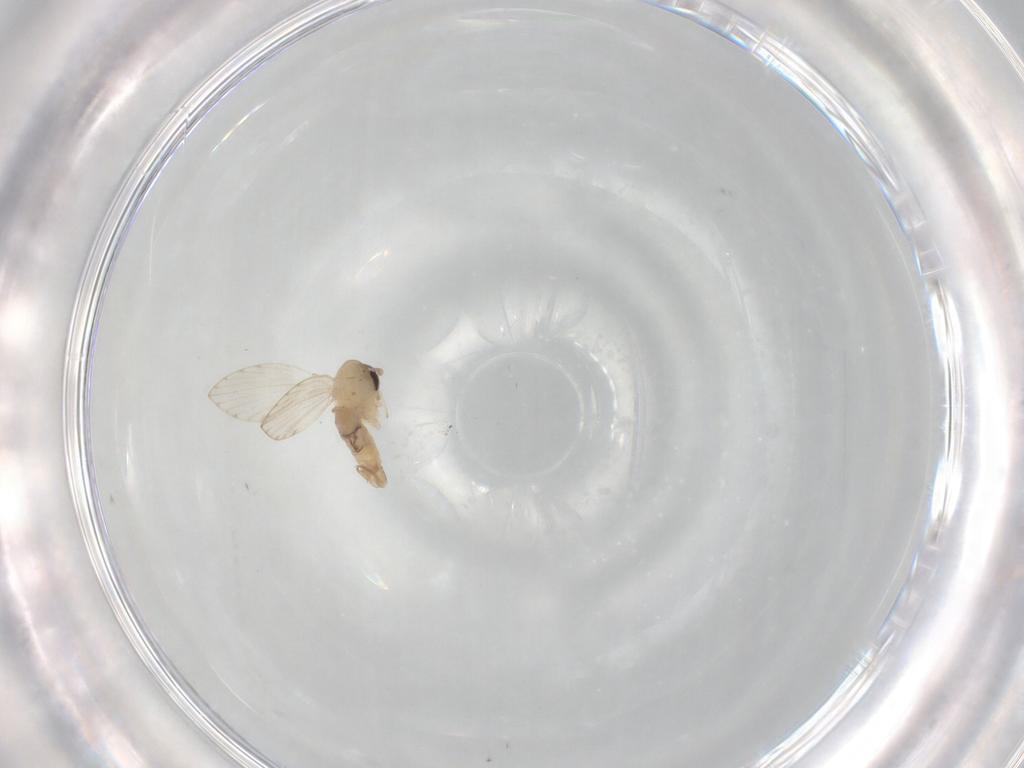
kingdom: Animalia
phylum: Arthropoda
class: Insecta
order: Diptera
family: Psychodidae
